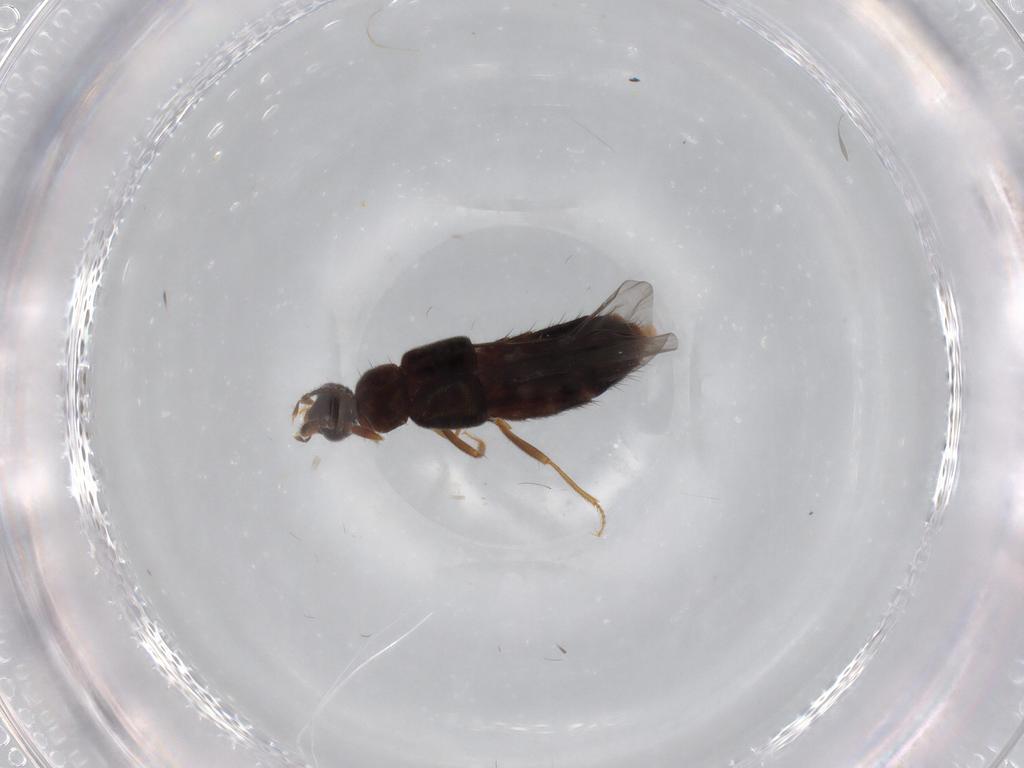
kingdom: Animalia
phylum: Arthropoda
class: Insecta
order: Coleoptera
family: Staphylinidae
